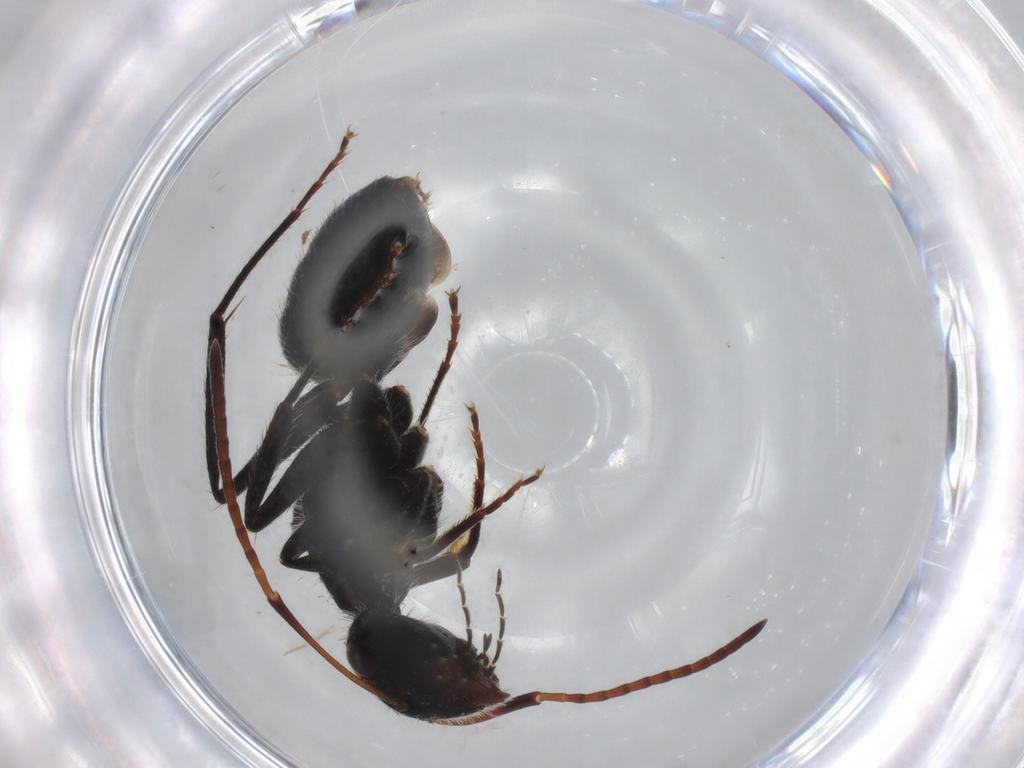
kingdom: Animalia
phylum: Arthropoda
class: Insecta
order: Hymenoptera
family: Formicidae
